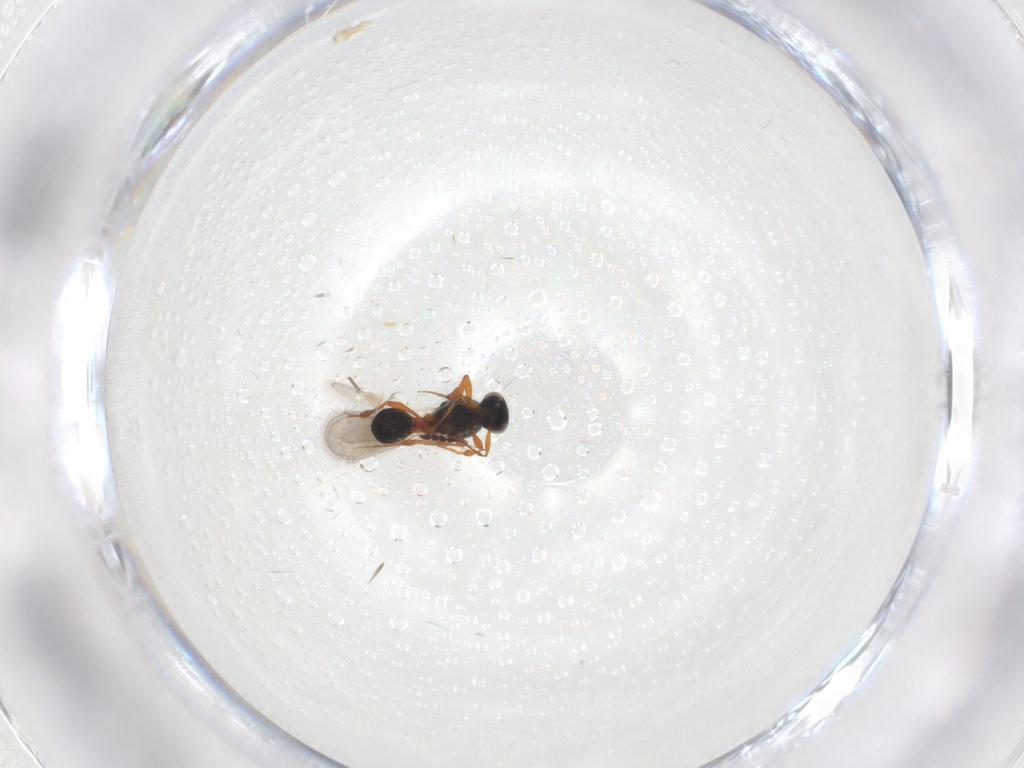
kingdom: Animalia
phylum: Arthropoda
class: Insecta
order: Hymenoptera
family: Platygastridae
